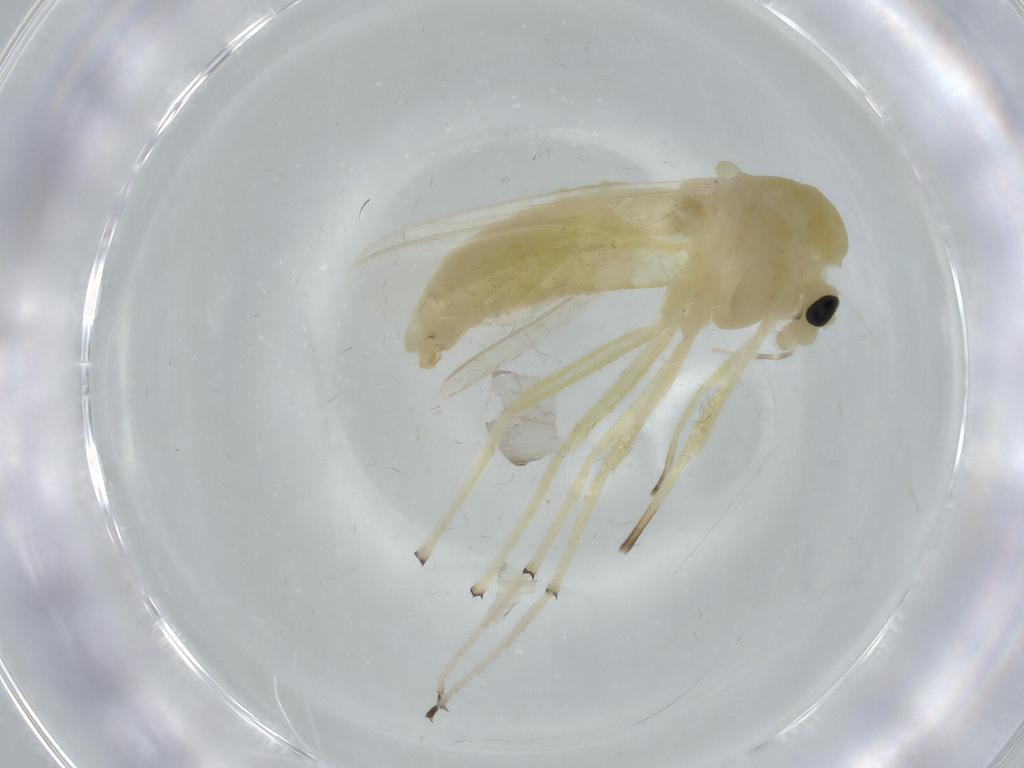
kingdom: Animalia
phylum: Arthropoda
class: Insecta
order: Diptera
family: Chironomidae
